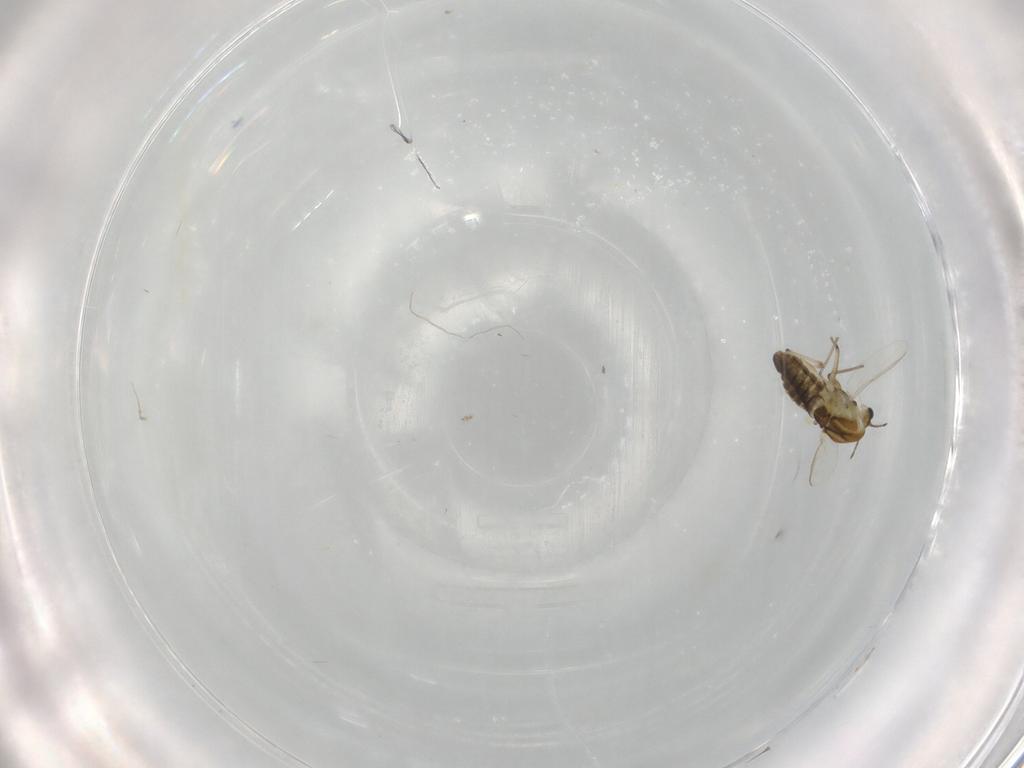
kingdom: Animalia
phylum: Arthropoda
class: Insecta
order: Diptera
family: Chironomidae
